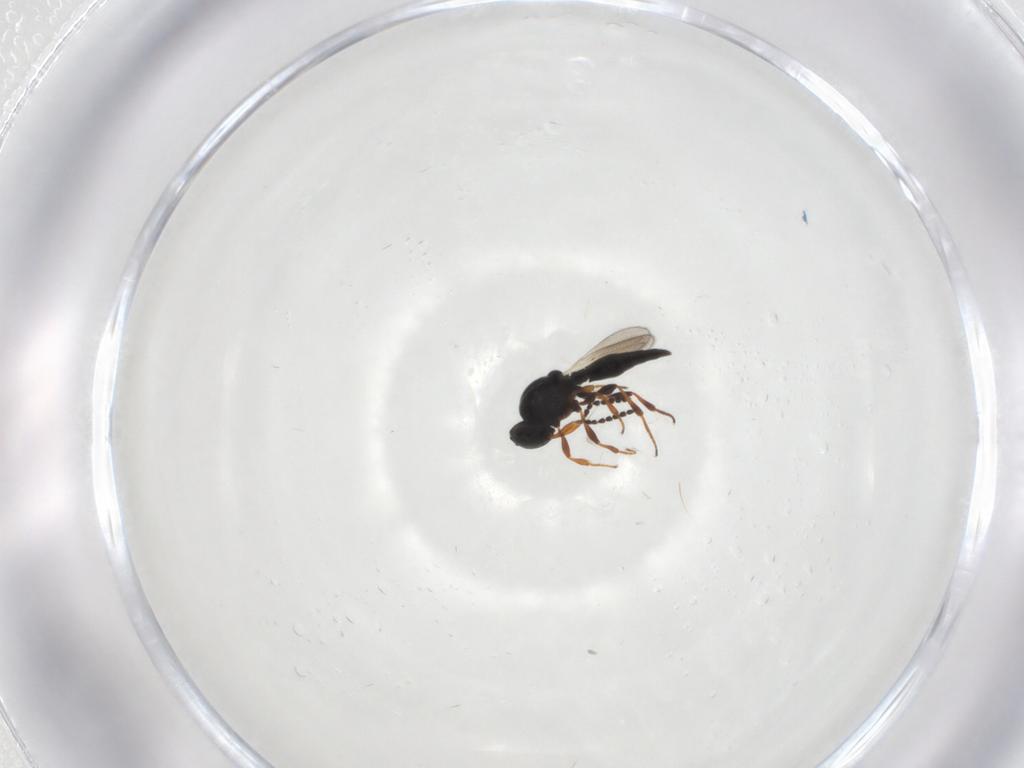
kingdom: Animalia
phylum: Arthropoda
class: Insecta
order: Hymenoptera
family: Platygastridae
